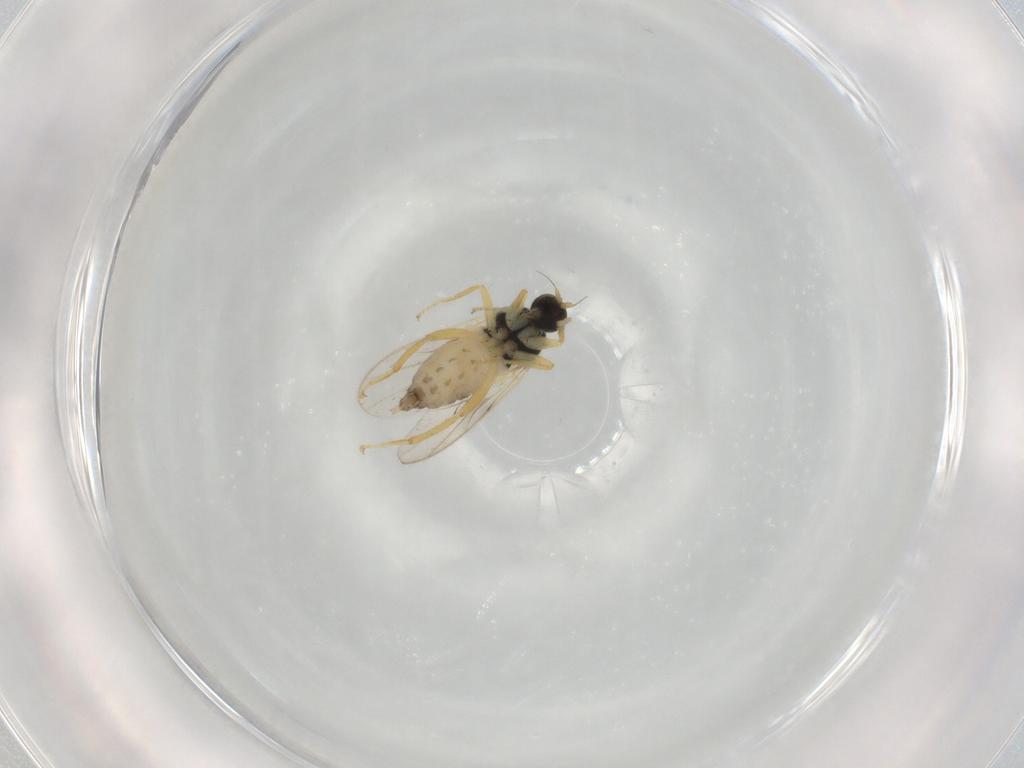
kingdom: Animalia
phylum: Arthropoda
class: Insecta
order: Diptera
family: Hybotidae
